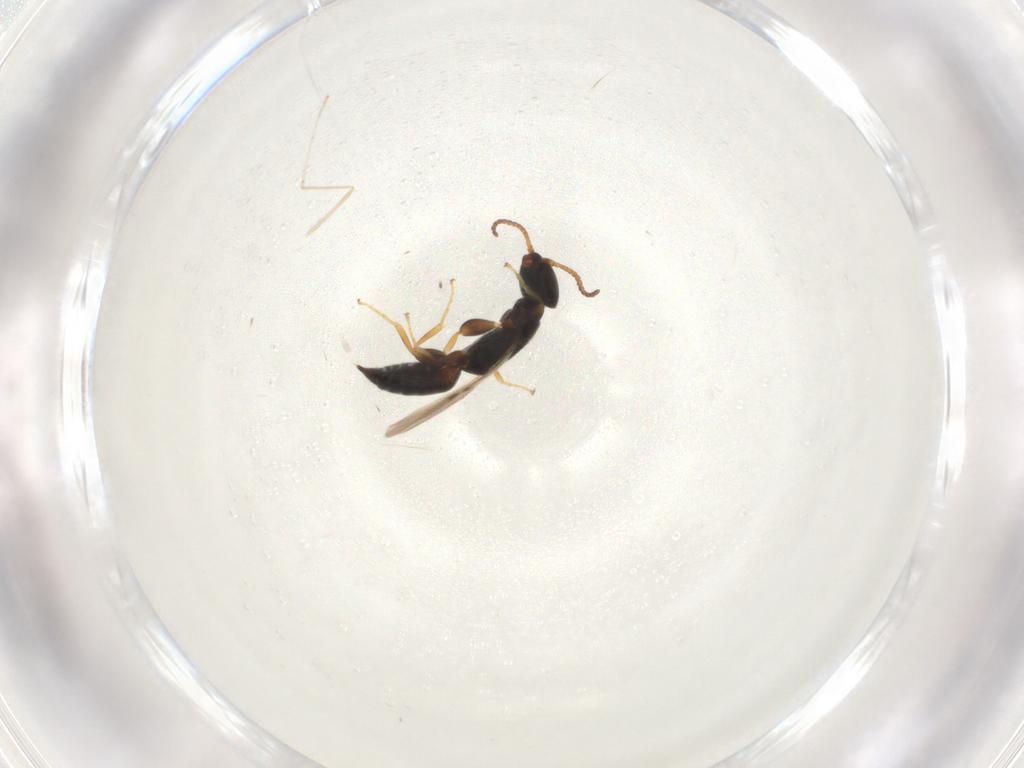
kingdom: Animalia
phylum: Arthropoda
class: Insecta
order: Hymenoptera
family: Bethylidae
